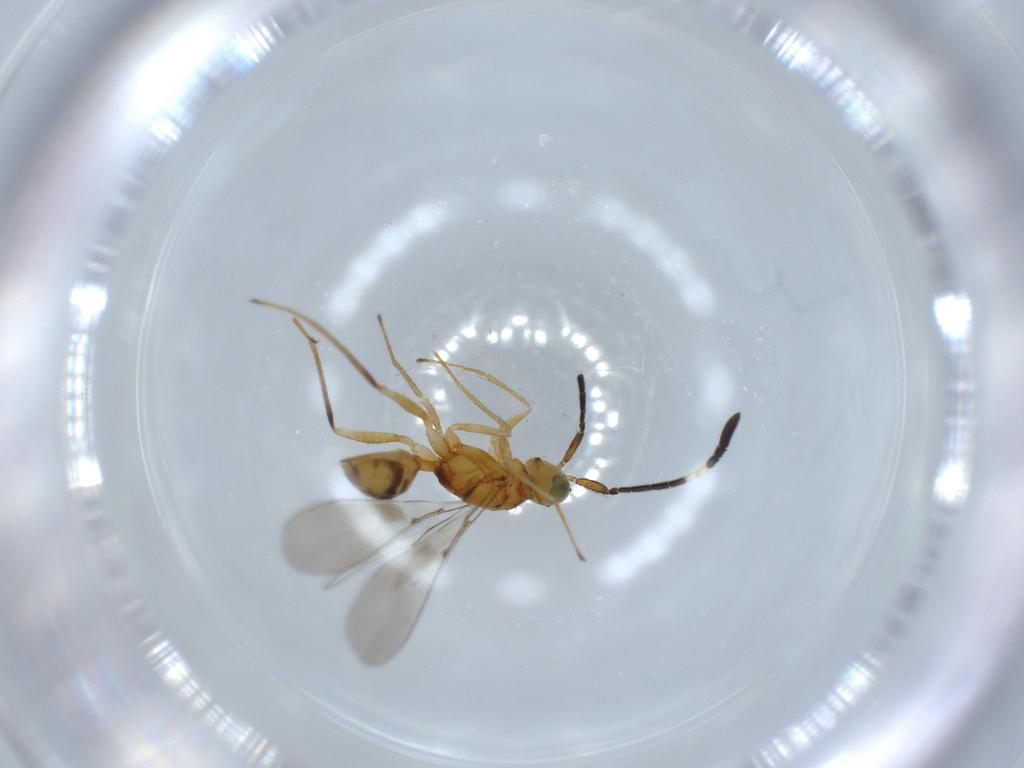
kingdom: Animalia
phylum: Arthropoda
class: Insecta
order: Hymenoptera
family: Mymaridae
